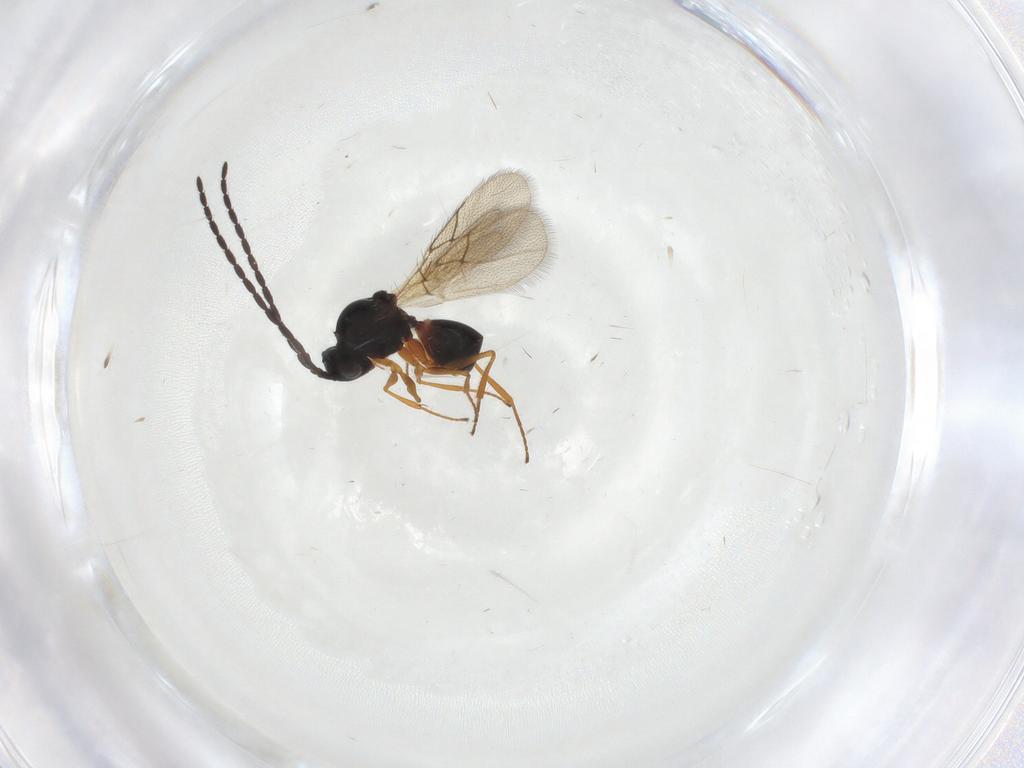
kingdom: Animalia
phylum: Arthropoda
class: Insecta
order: Hymenoptera
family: Figitidae
